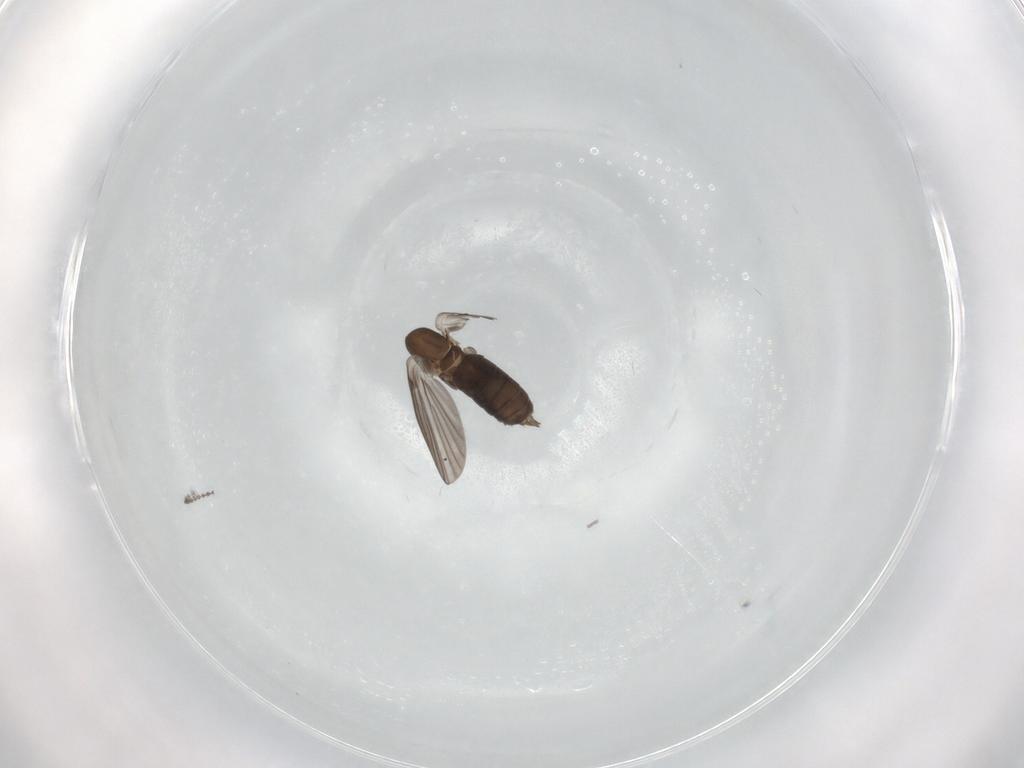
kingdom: Animalia
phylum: Arthropoda
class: Insecta
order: Diptera
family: Cecidomyiidae
